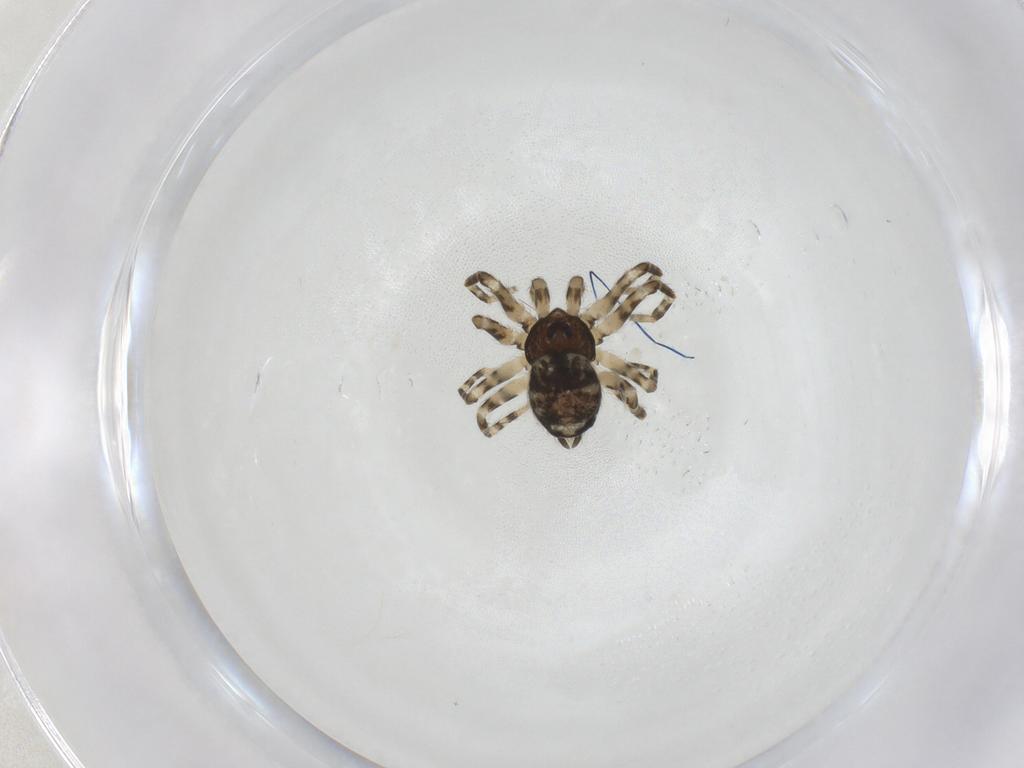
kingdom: Animalia
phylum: Arthropoda
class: Arachnida
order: Araneae
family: Oecobiidae
